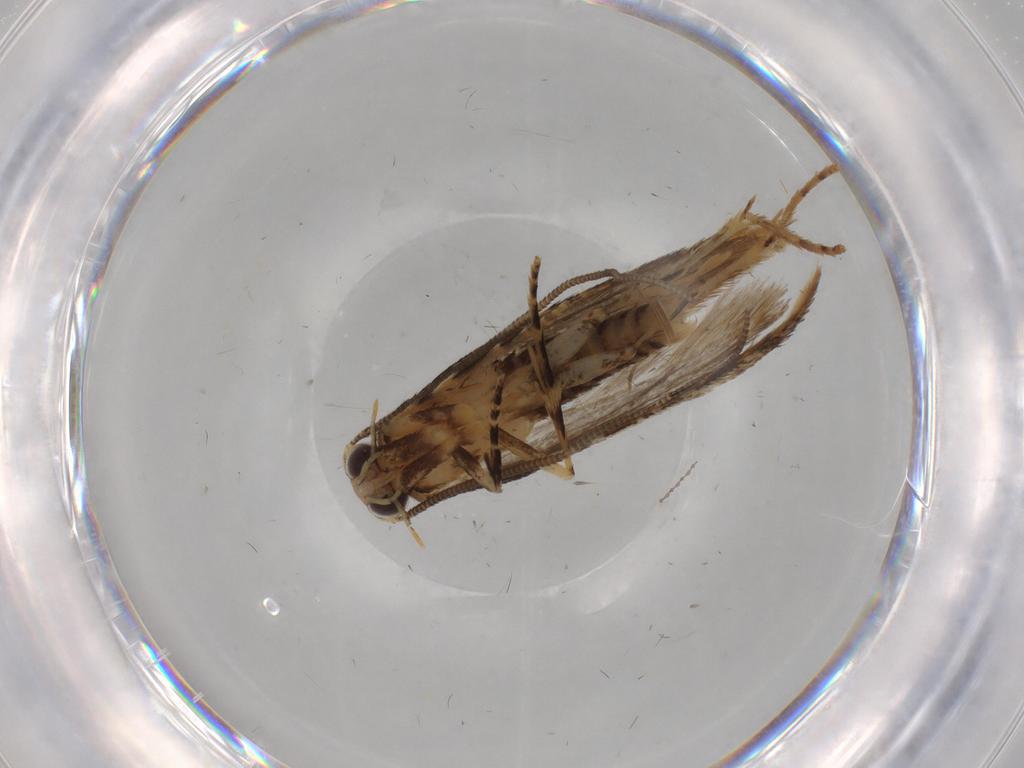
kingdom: Animalia
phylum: Arthropoda
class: Insecta
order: Lepidoptera
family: Tineidae
